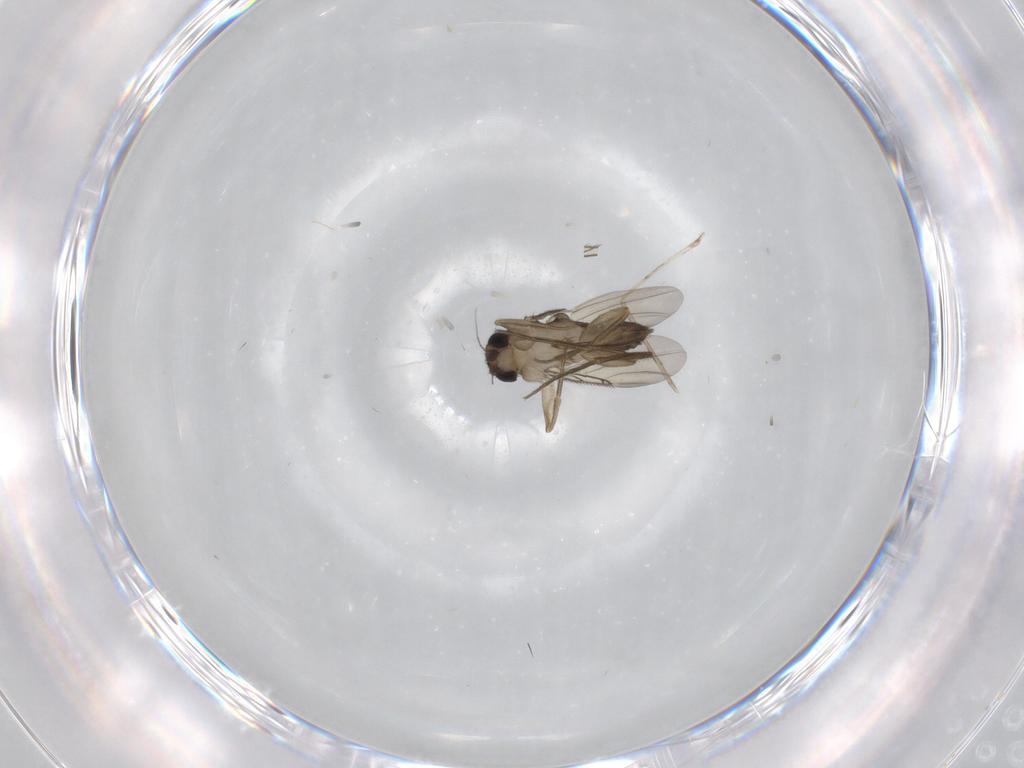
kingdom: Animalia
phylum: Arthropoda
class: Insecta
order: Diptera
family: Phoridae
